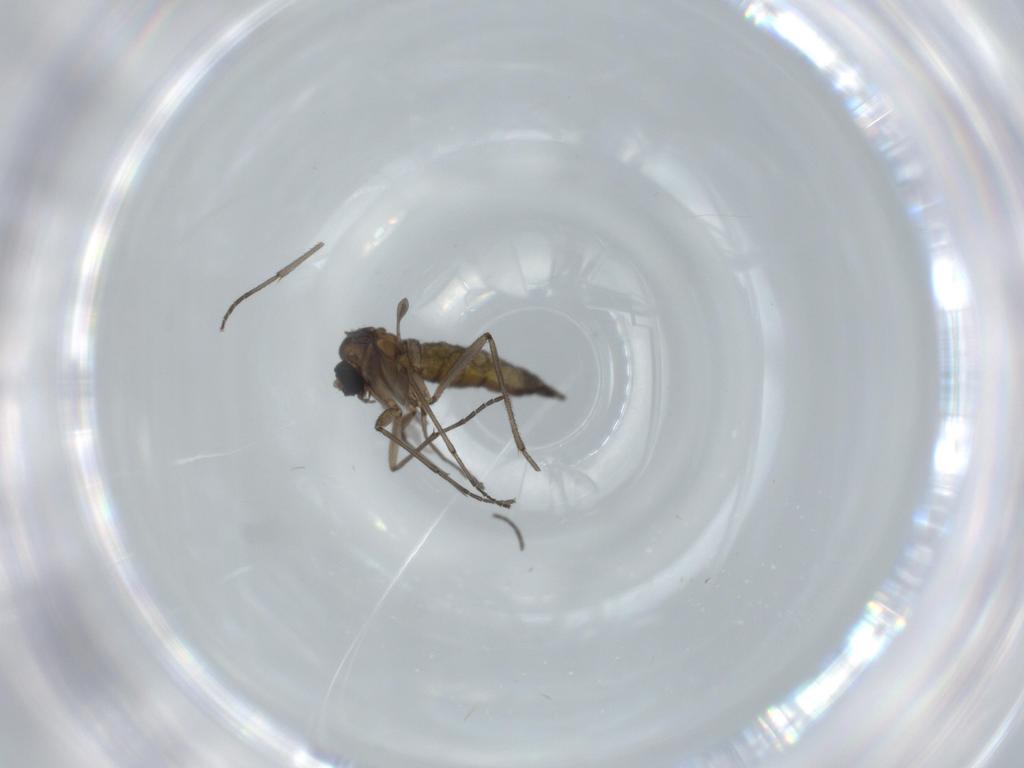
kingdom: Animalia
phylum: Arthropoda
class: Insecta
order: Diptera
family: Sciaridae
